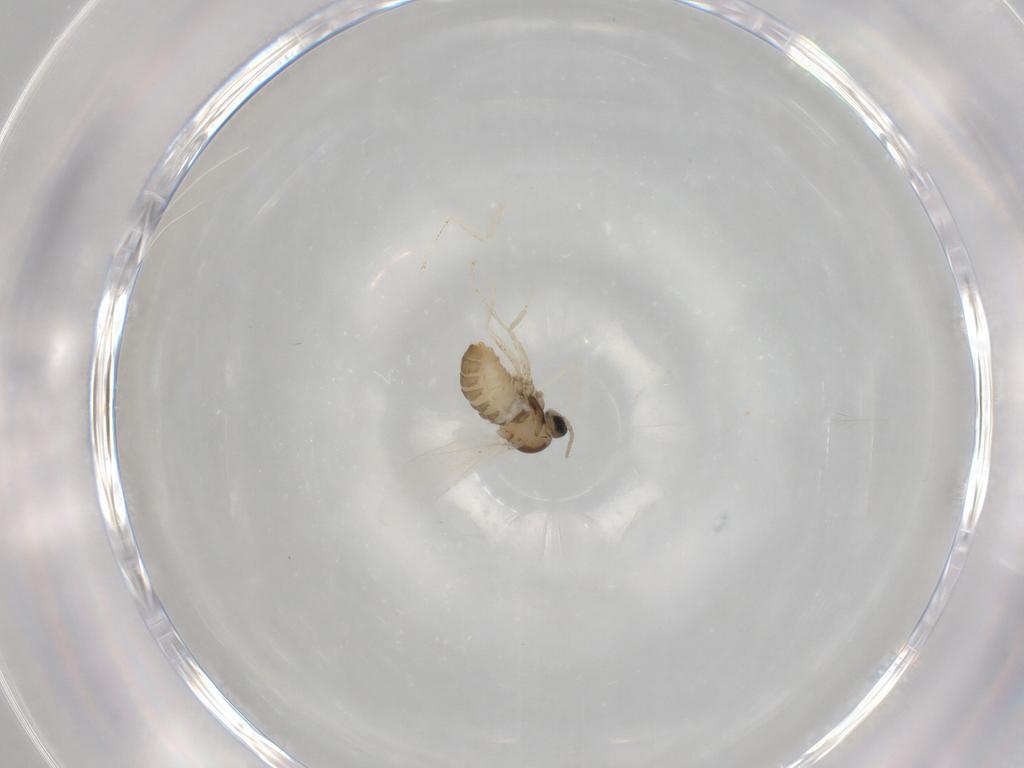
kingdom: Animalia
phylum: Arthropoda
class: Insecta
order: Diptera
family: Cecidomyiidae
